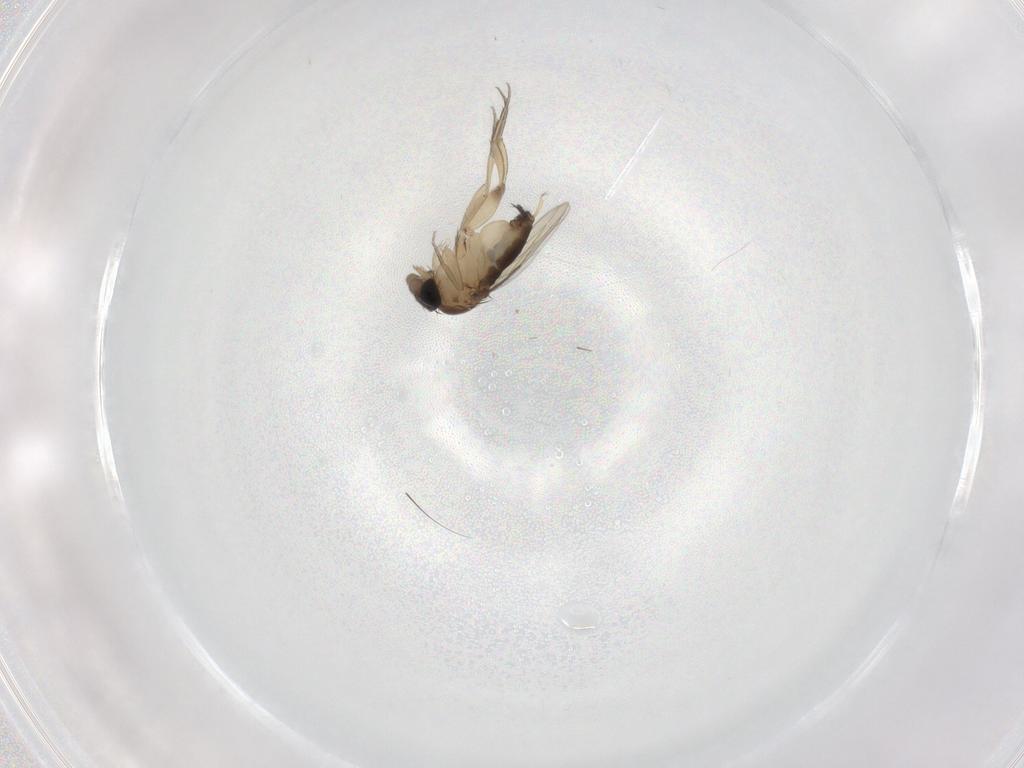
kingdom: Animalia
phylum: Arthropoda
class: Insecta
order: Diptera
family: Phoridae
